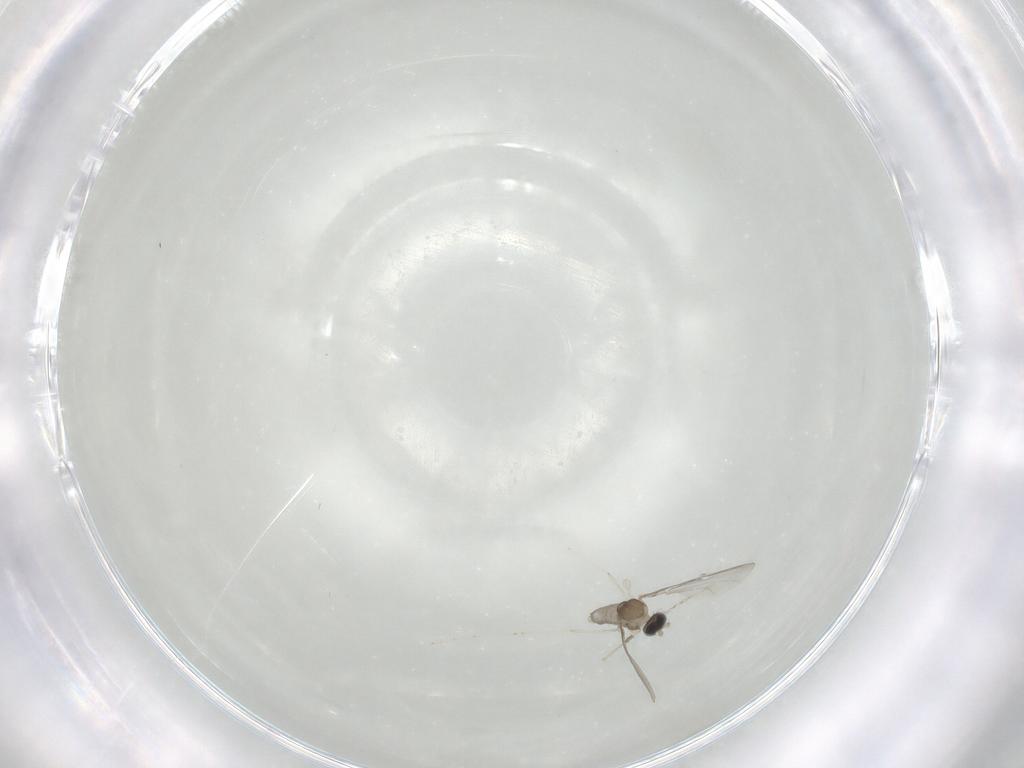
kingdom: Animalia
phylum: Arthropoda
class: Insecta
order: Diptera
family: Cecidomyiidae
